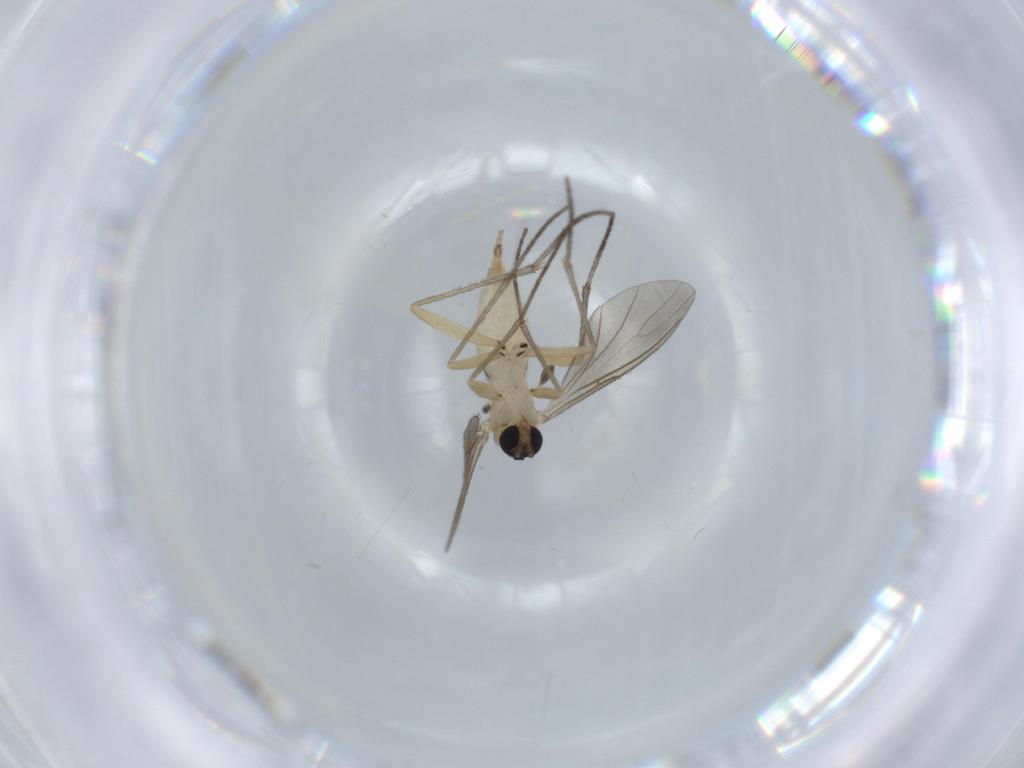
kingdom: Animalia
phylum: Arthropoda
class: Insecta
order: Diptera
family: Sciaridae
